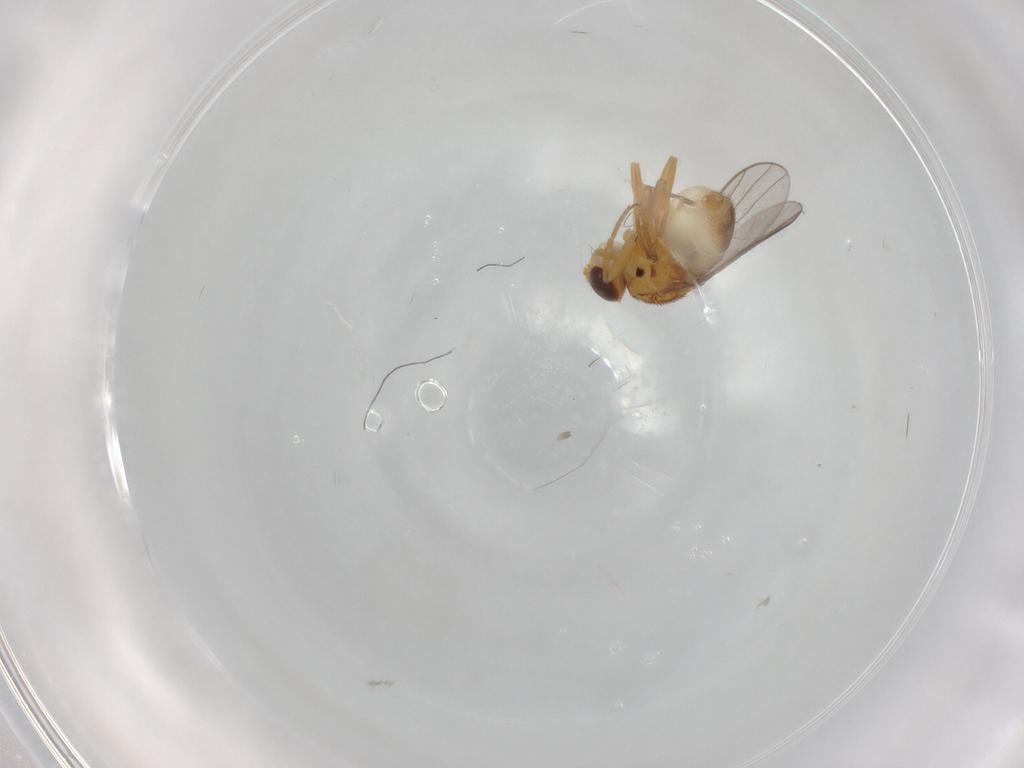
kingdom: Animalia
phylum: Arthropoda
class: Insecta
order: Diptera
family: Chloropidae
